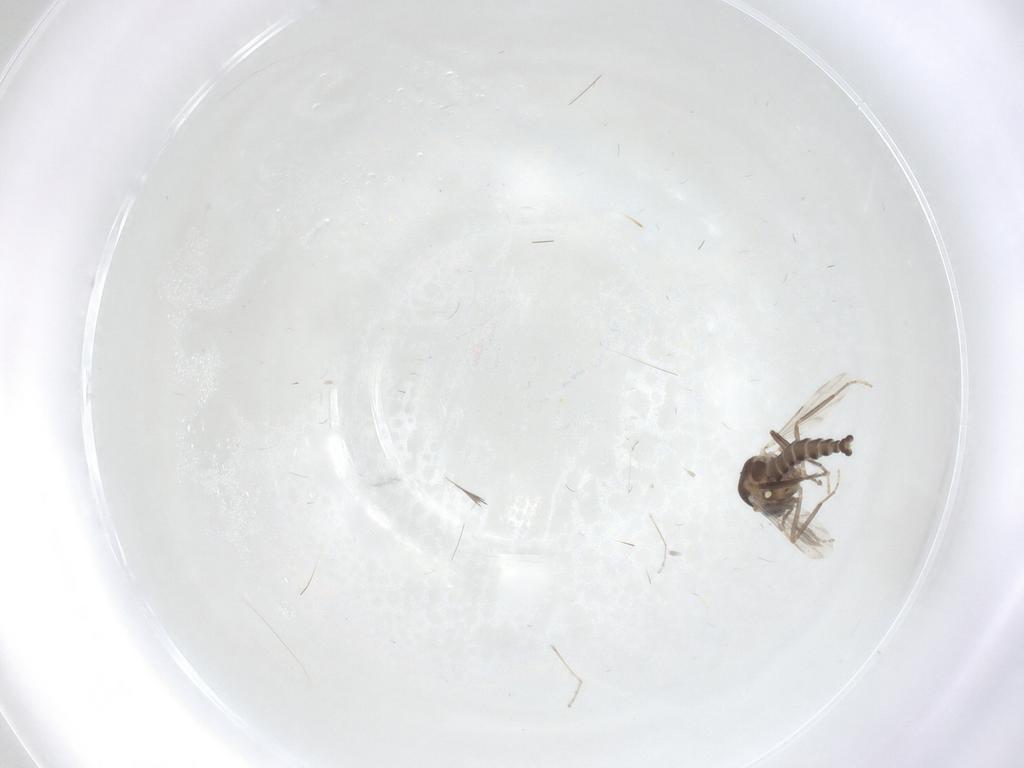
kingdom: Animalia
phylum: Arthropoda
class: Insecta
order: Diptera
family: Ceratopogonidae
